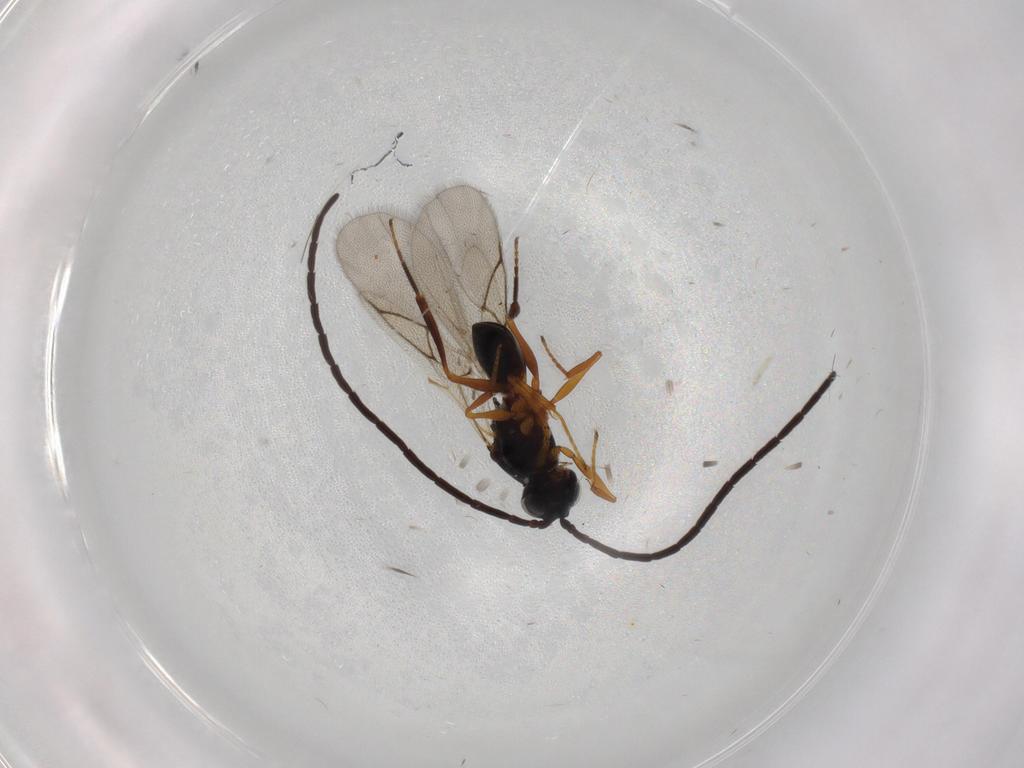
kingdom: Animalia
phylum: Arthropoda
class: Insecta
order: Hymenoptera
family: Figitidae
